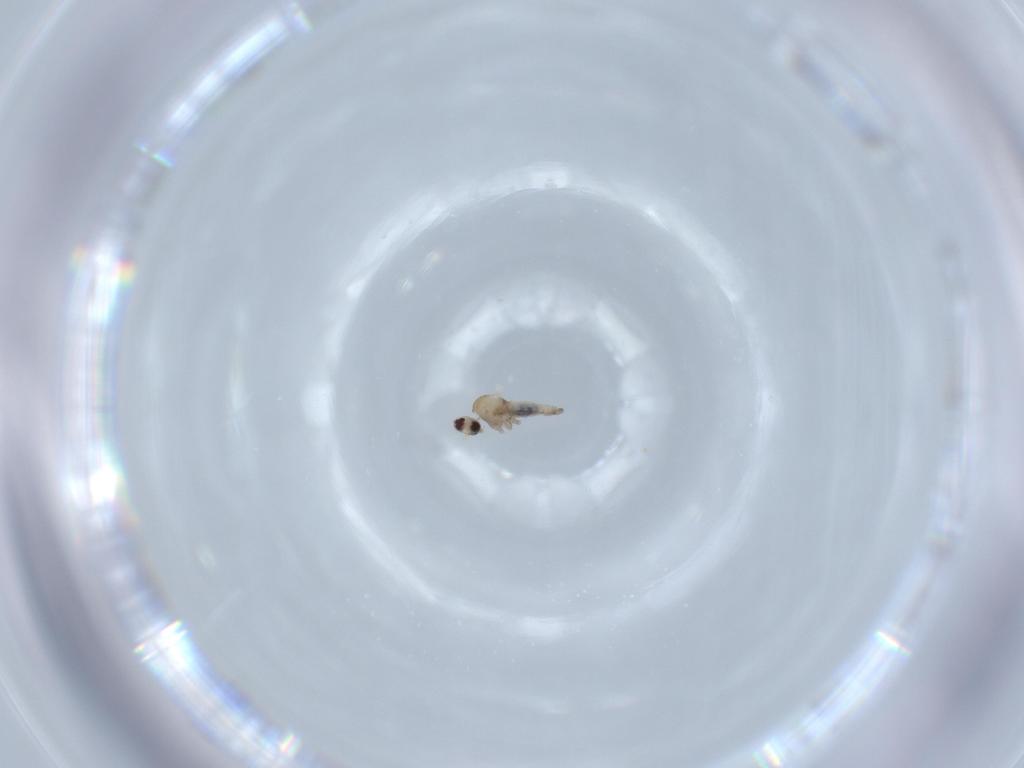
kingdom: Animalia
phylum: Arthropoda
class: Insecta
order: Diptera
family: Cecidomyiidae
